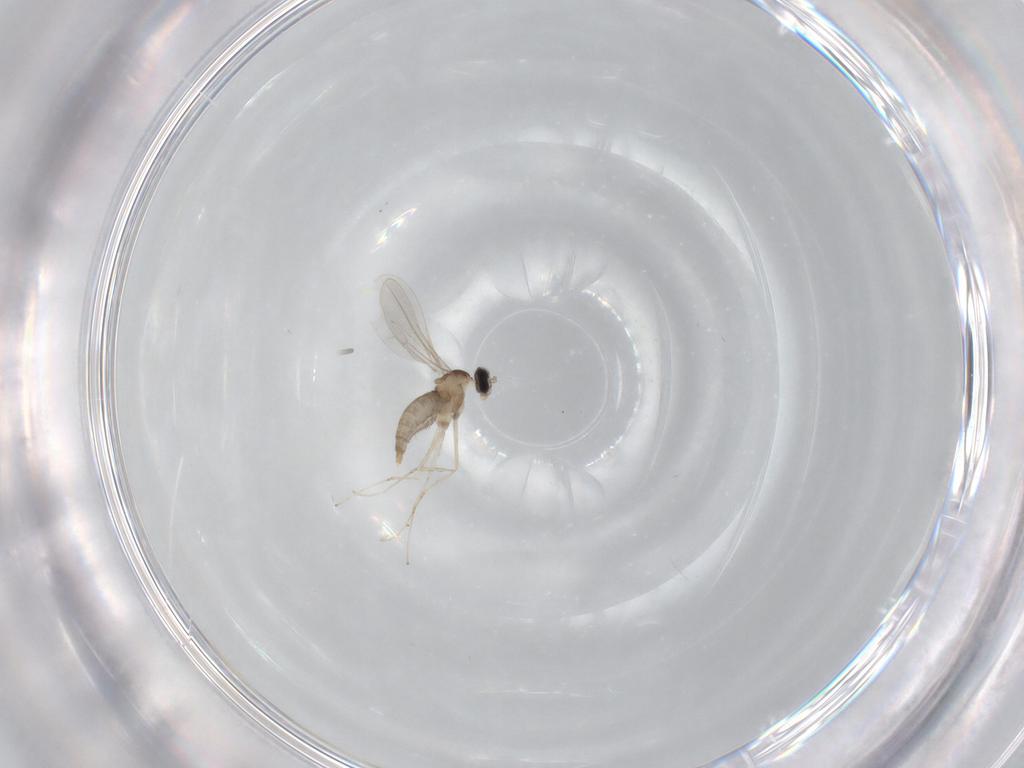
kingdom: Animalia
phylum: Arthropoda
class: Insecta
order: Diptera
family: Cecidomyiidae
